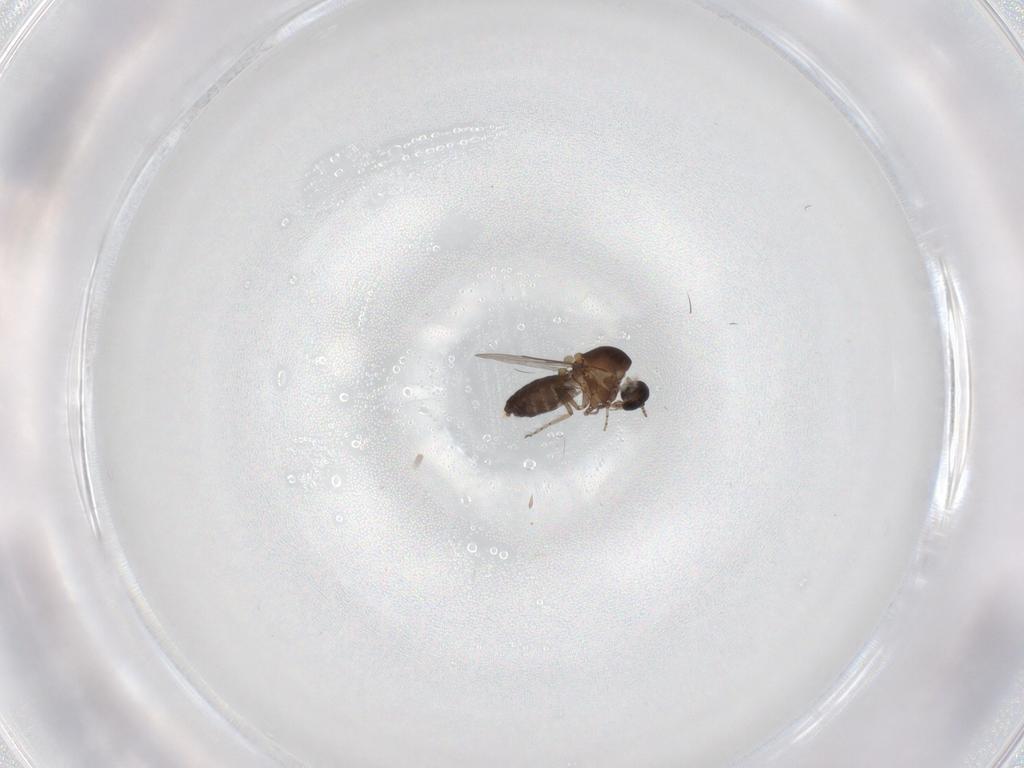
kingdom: Animalia
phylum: Arthropoda
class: Insecta
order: Diptera
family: Ceratopogonidae
